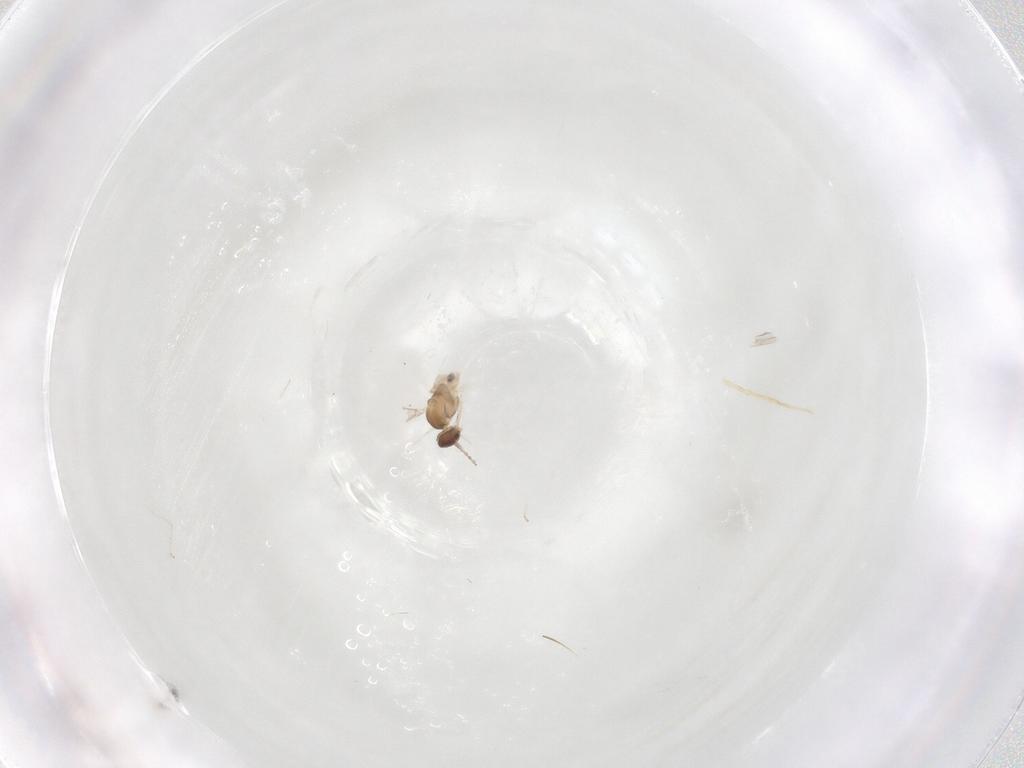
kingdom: Animalia
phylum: Arthropoda
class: Insecta
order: Diptera
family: Cecidomyiidae
